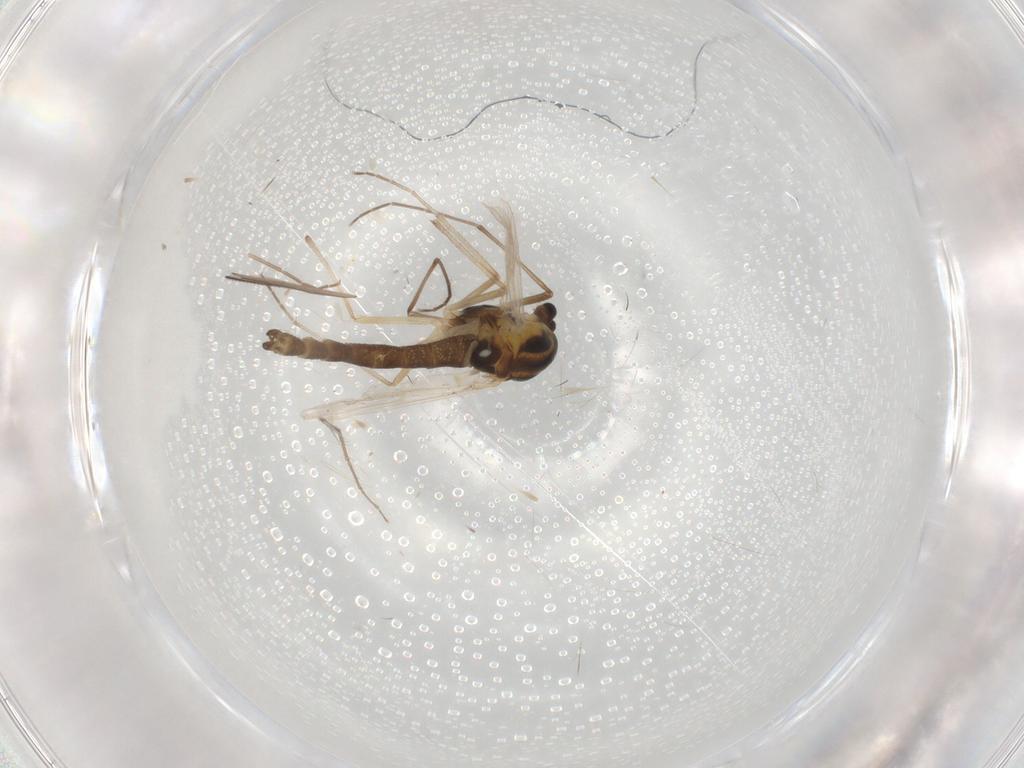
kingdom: Animalia
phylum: Arthropoda
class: Insecta
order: Diptera
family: Chironomidae
